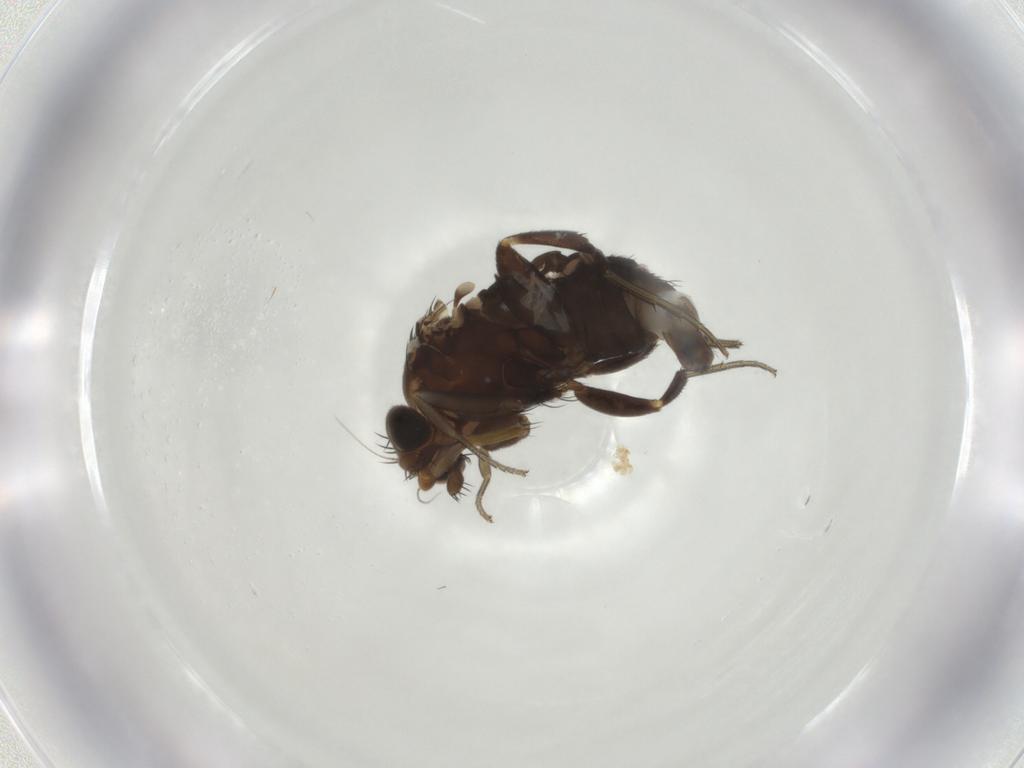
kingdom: Animalia
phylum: Arthropoda
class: Insecta
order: Diptera
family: Phoridae
